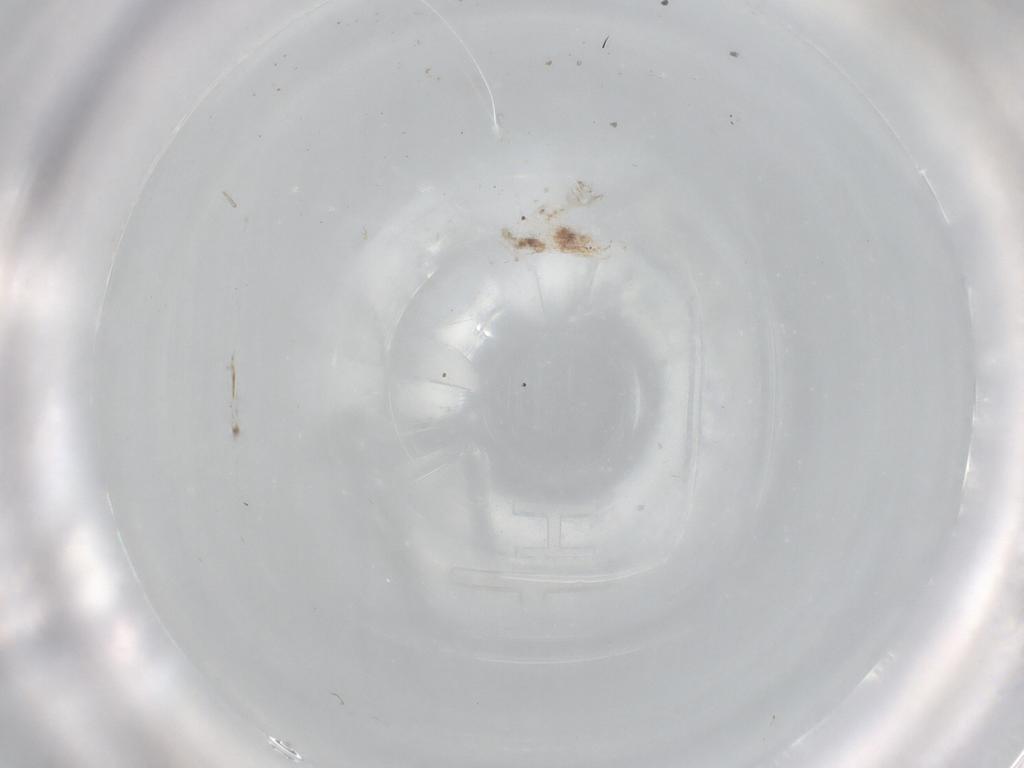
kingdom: Animalia
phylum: Arthropoda
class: Insecta
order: Diptera
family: Cecidomyiidae
